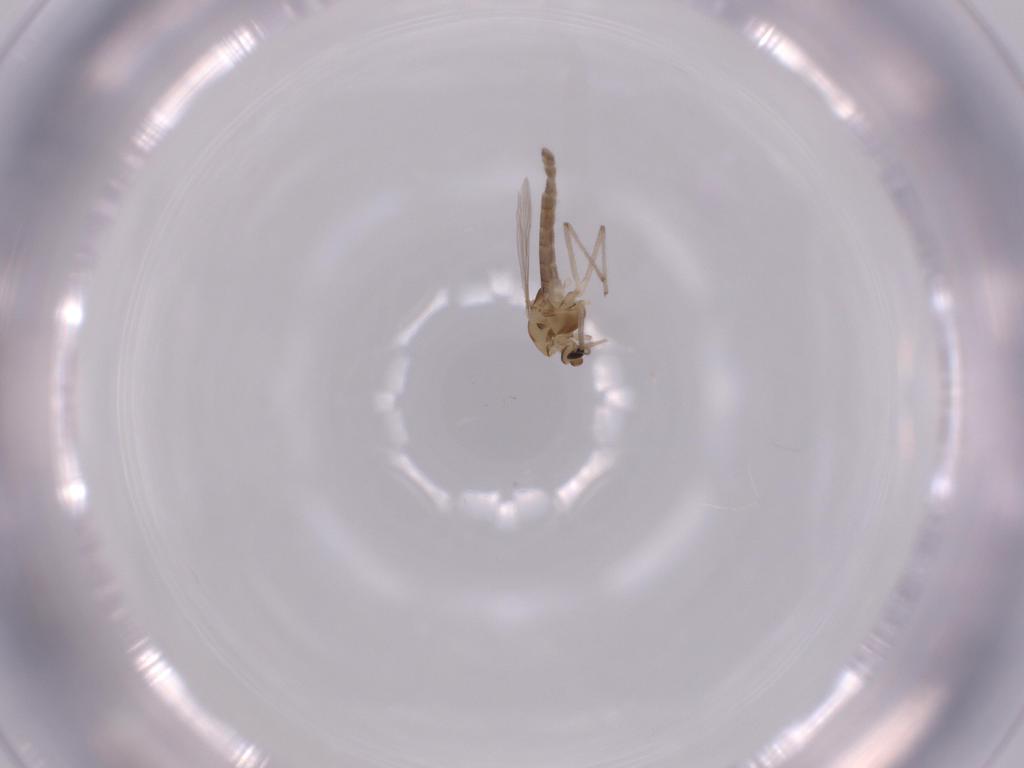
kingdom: Animalia
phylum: Arthropoda
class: Insecta
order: Diptera
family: Chironomidae
